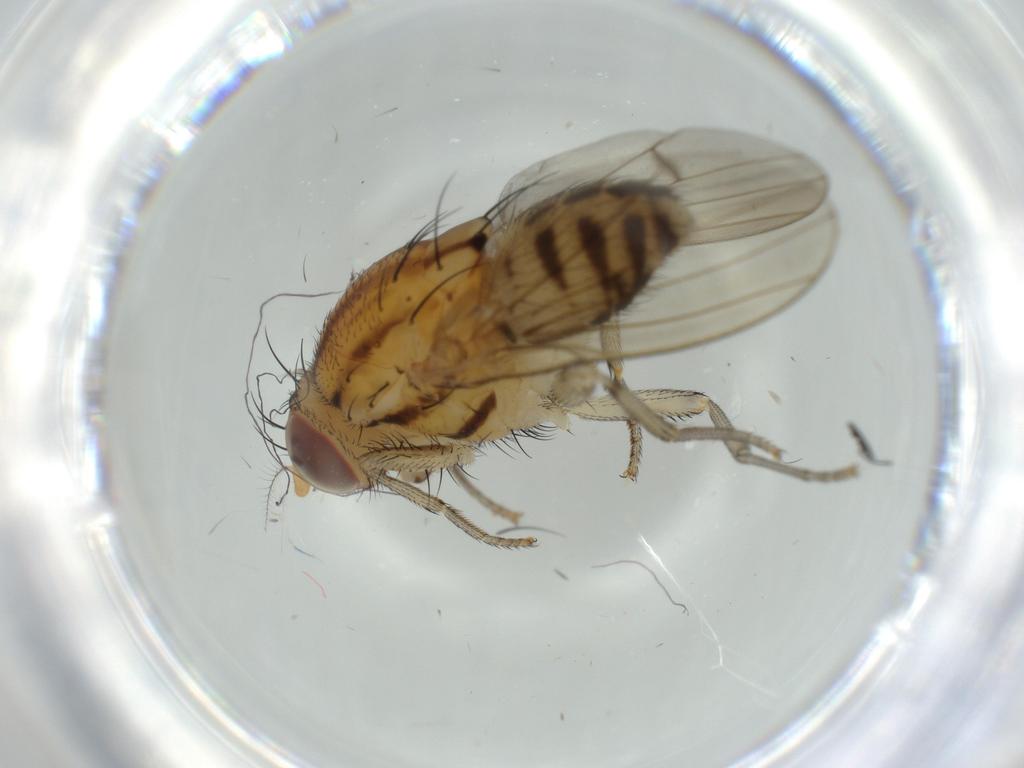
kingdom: Animalia
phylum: Arthropoda
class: Insecta
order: Diptera
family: Lauxaniidae
